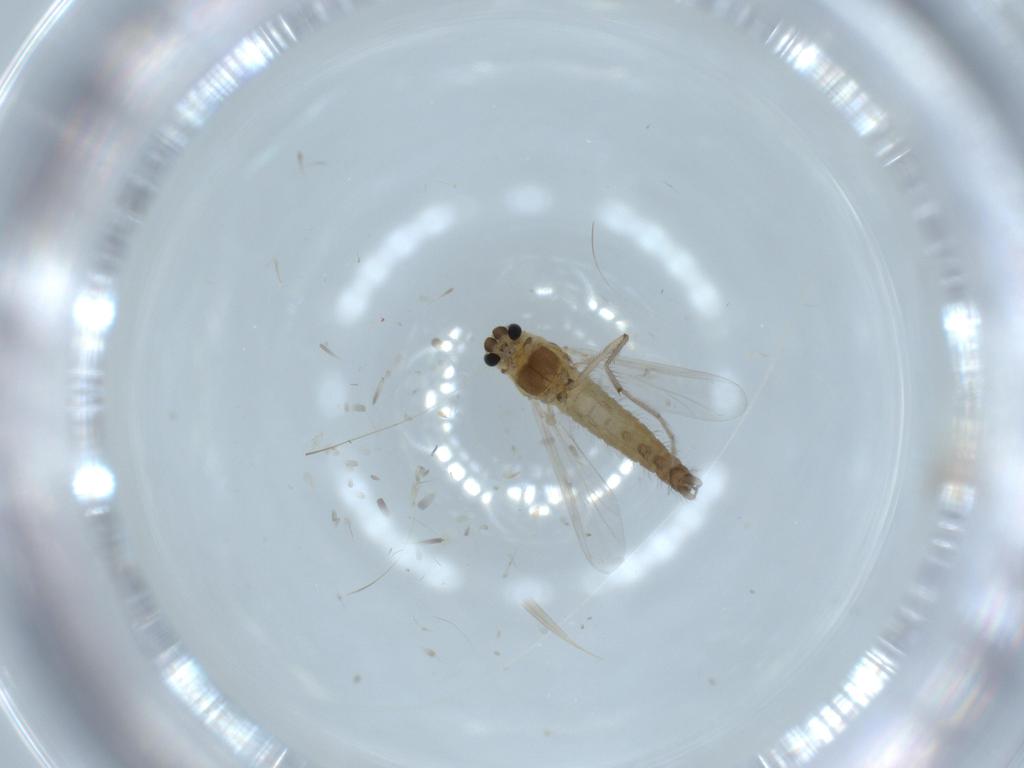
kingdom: Animalia
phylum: Arthropoda
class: Insecta
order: Diptera
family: Chironomidae
